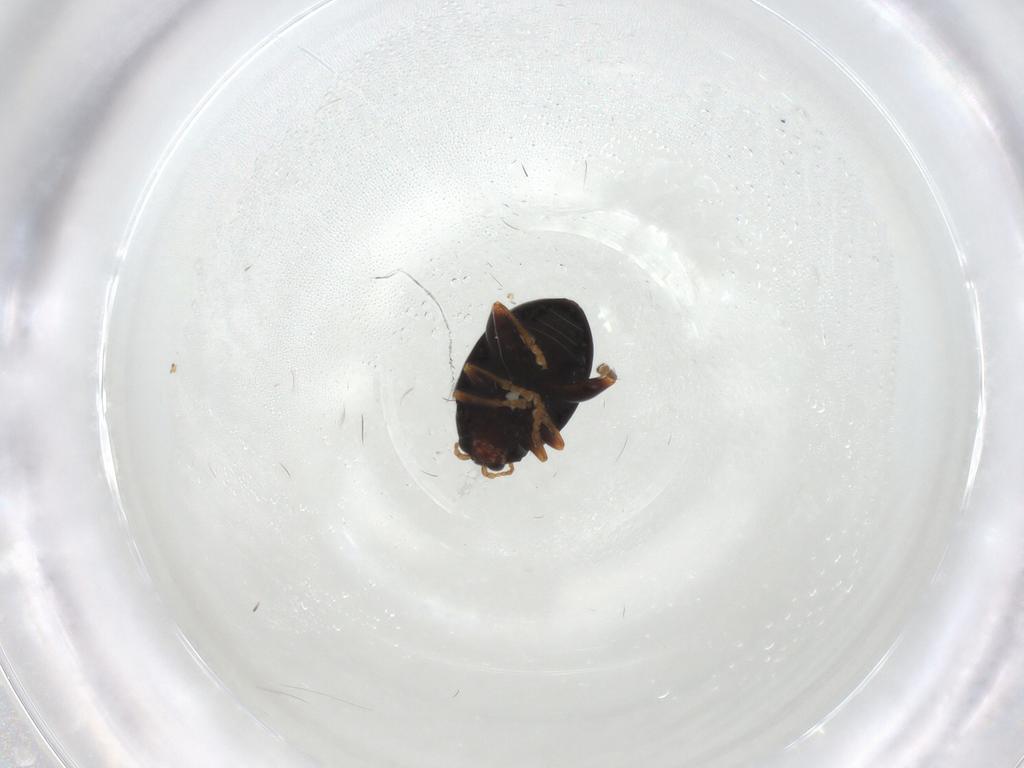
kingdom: Animalia
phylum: Arthropoda
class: Insecta
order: Coleoptera
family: Chrysomelidae
